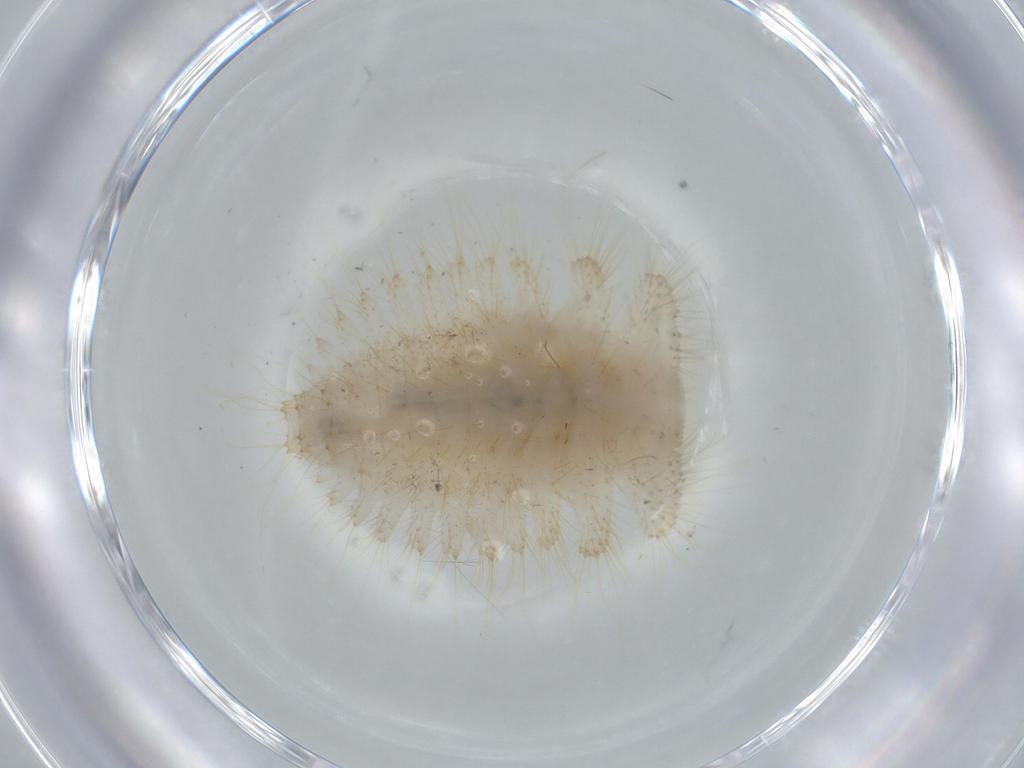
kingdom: Animalia
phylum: Arthropoda
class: Insecta
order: Coleoptera
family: Anamorphidae
